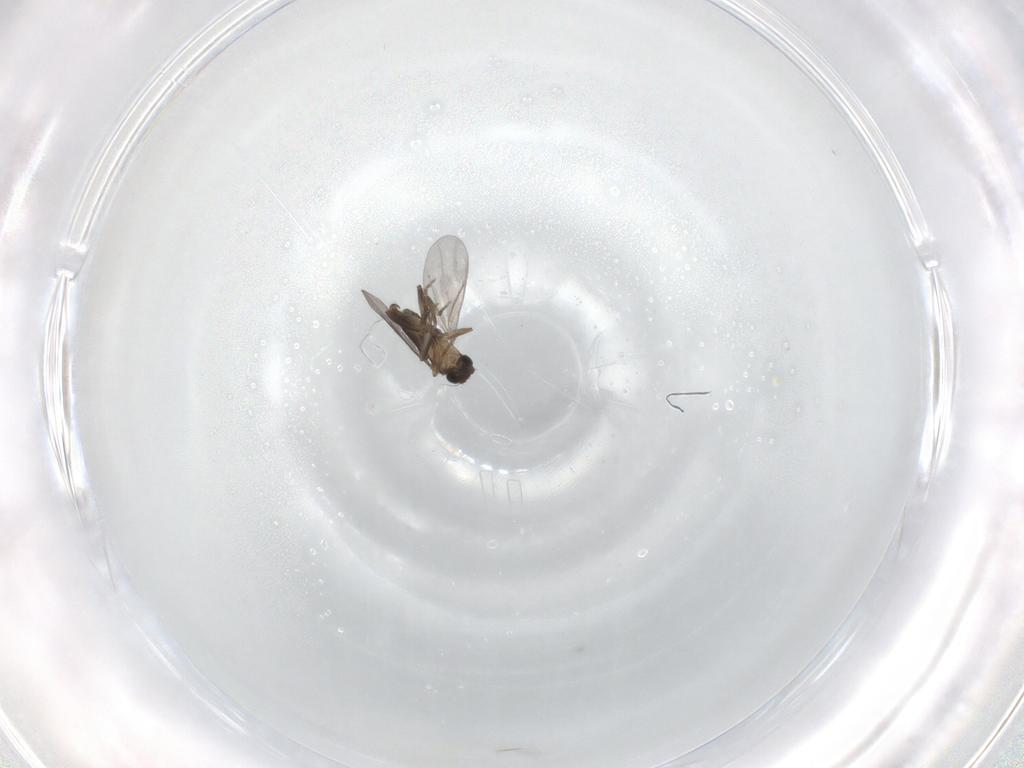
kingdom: Animalia
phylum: Arthropoda
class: Insecta
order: Diptera
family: Phoridae
